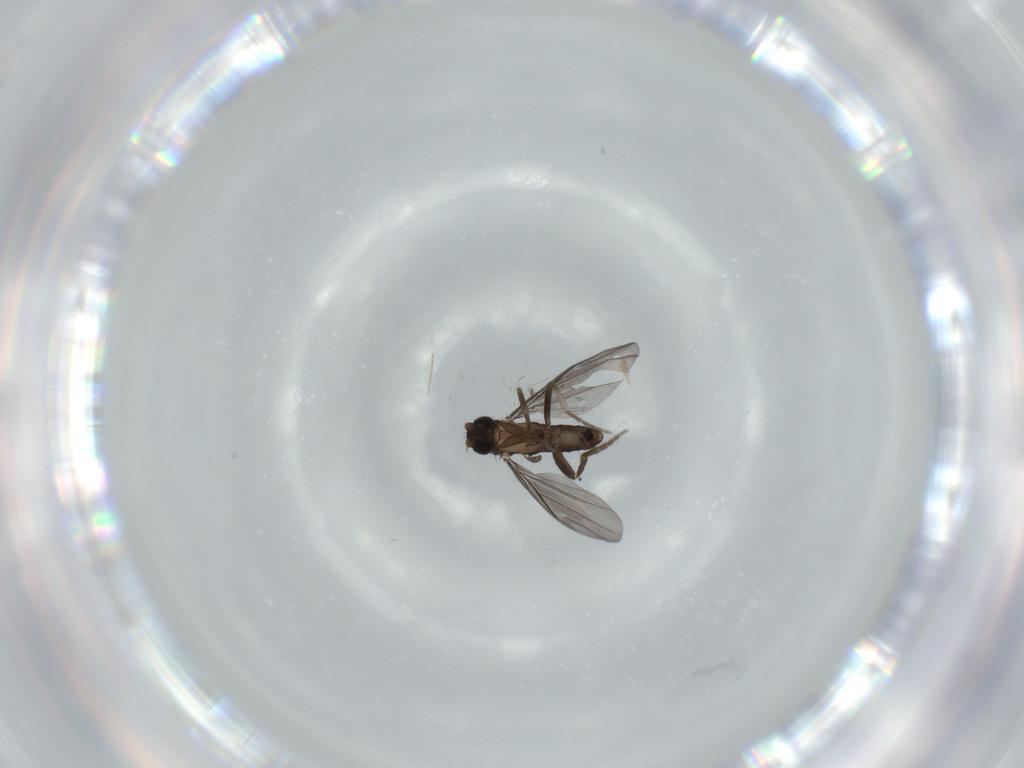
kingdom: Animalia
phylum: Arthropoda
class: Insecta
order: Diptera
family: Phoridae
